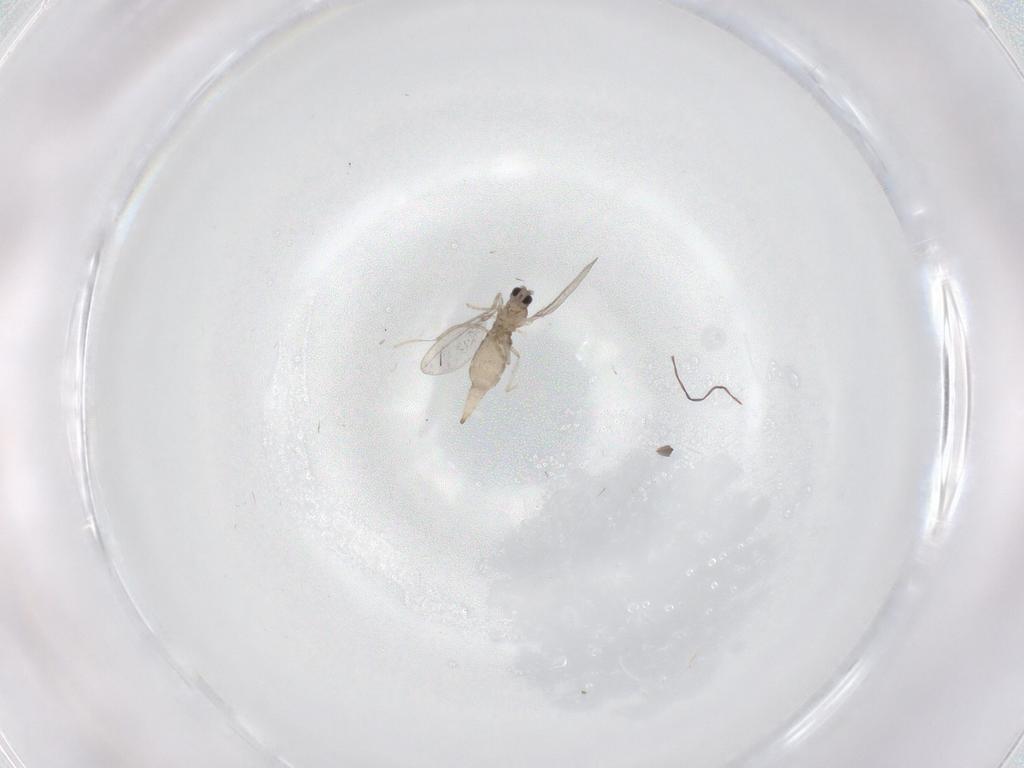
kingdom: Animalia
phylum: Arthropoda
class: Insecta
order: Diptera
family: Cecidomyiidae
